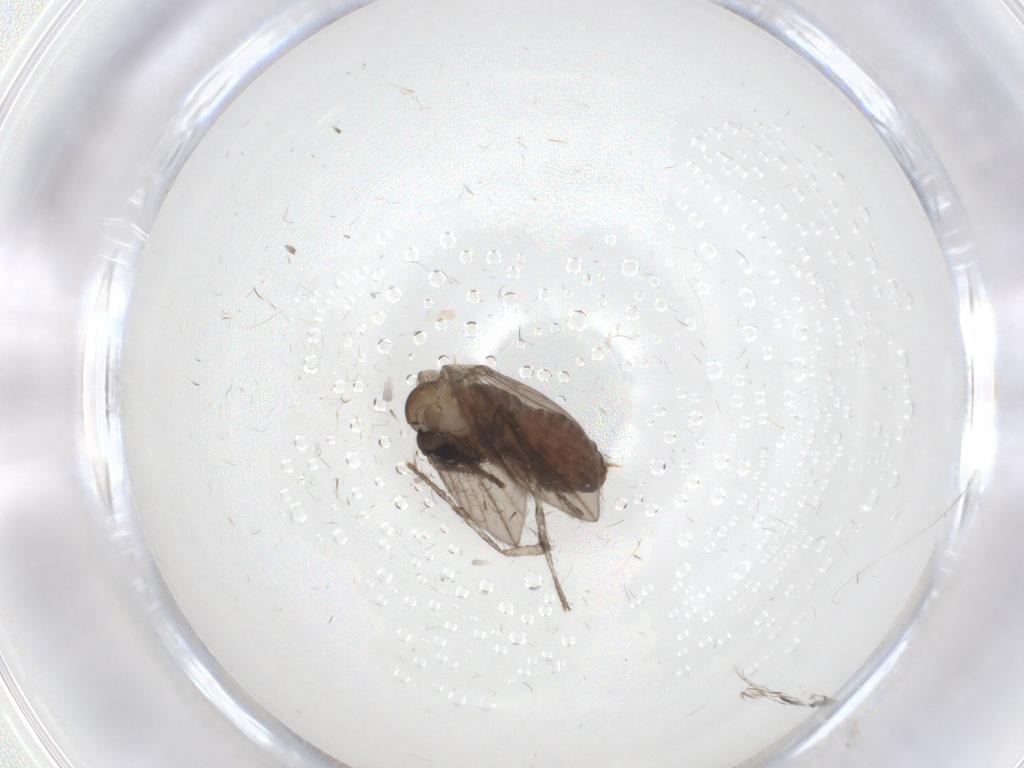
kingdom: Animalia
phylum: Arthropoda
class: Insecta
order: Diptera
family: Psychodidae
